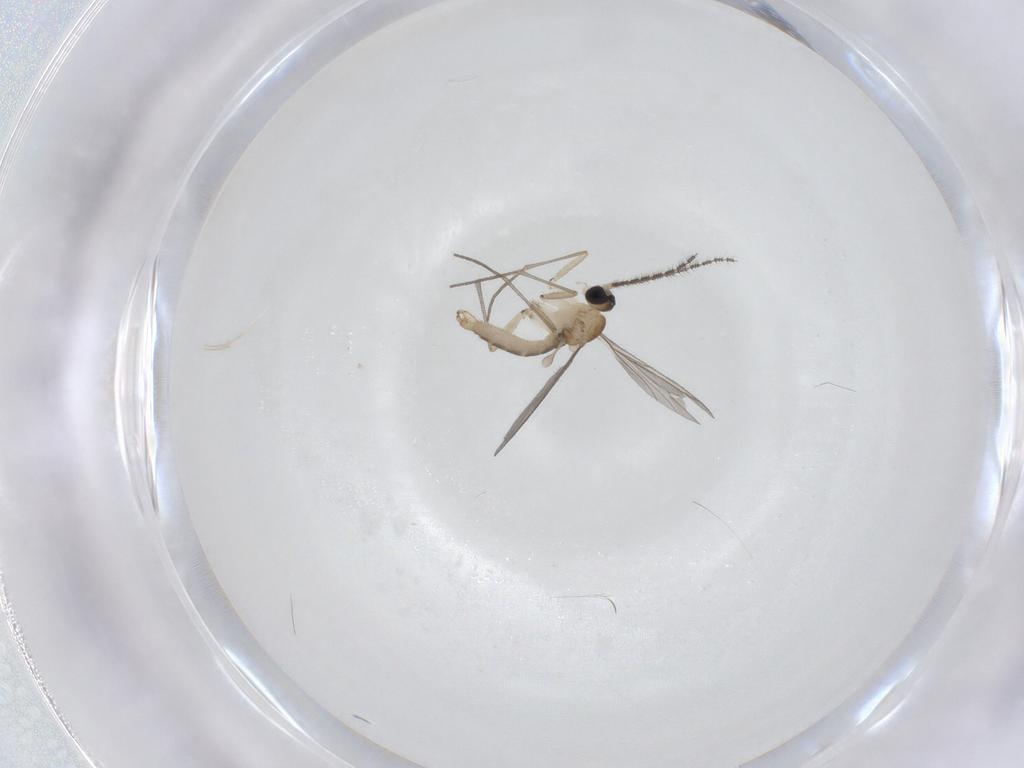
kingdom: Animalia
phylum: Arthropoda
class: Insecta
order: Diptera
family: Sciaridae
